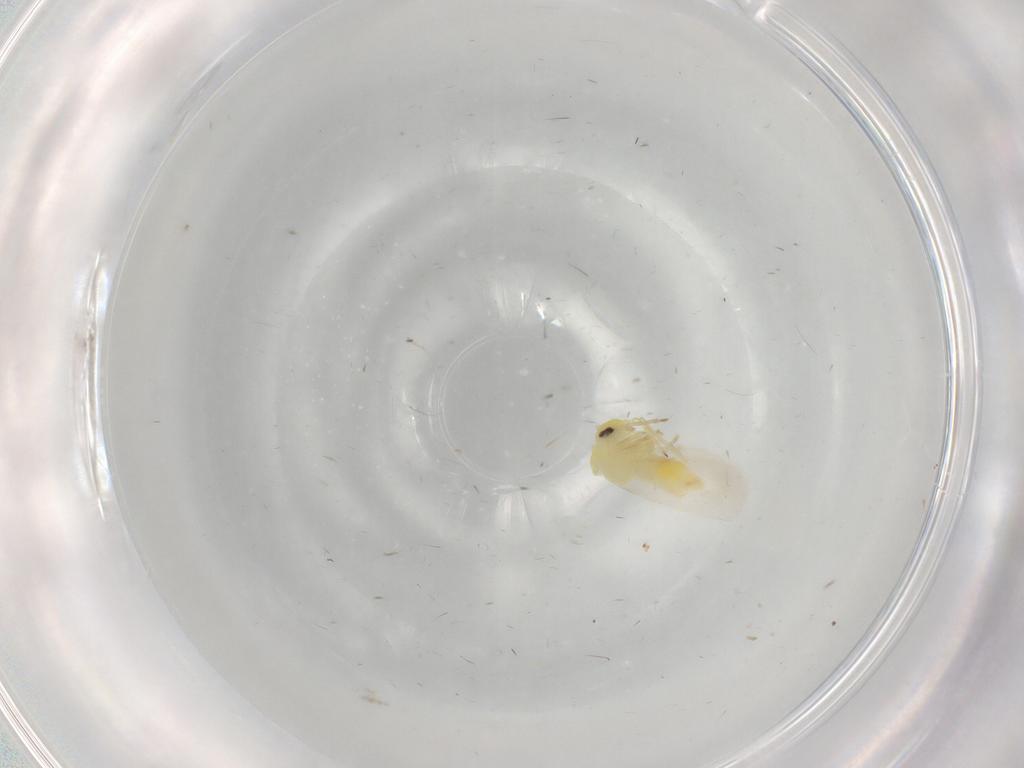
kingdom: Animalia
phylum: Arthropoda
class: Insecta
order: Hemiptera
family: Aleyrodidae
